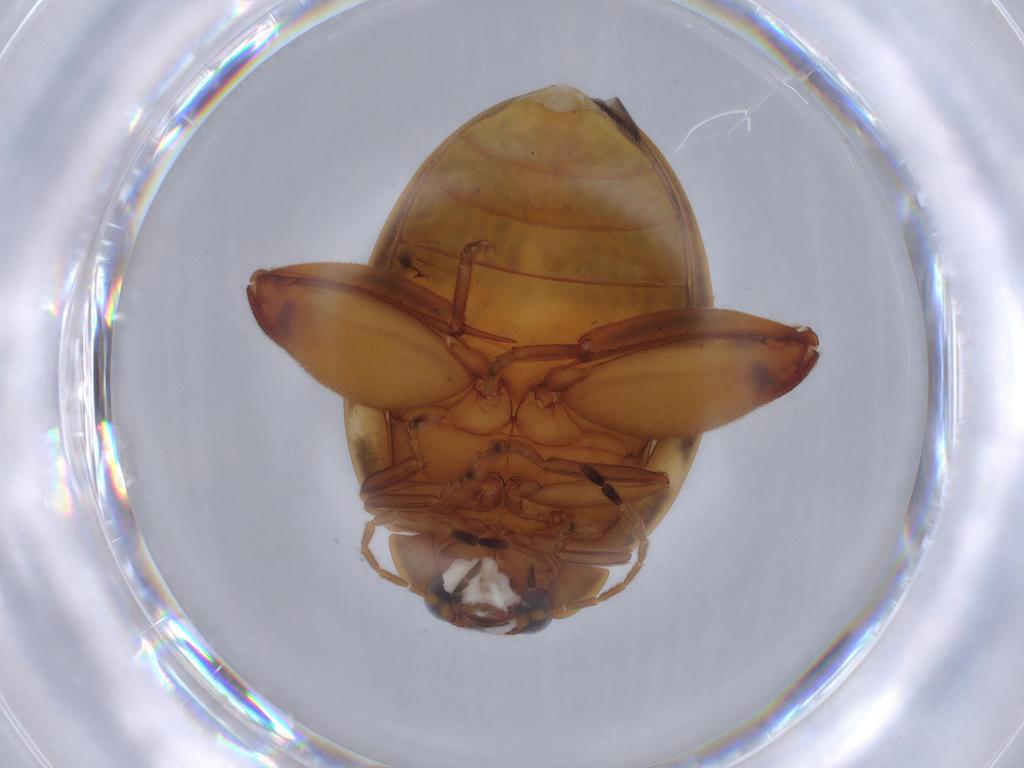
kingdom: Animalia
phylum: Arthropoda
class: Insecta
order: Coleoptera
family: Scirtidae
